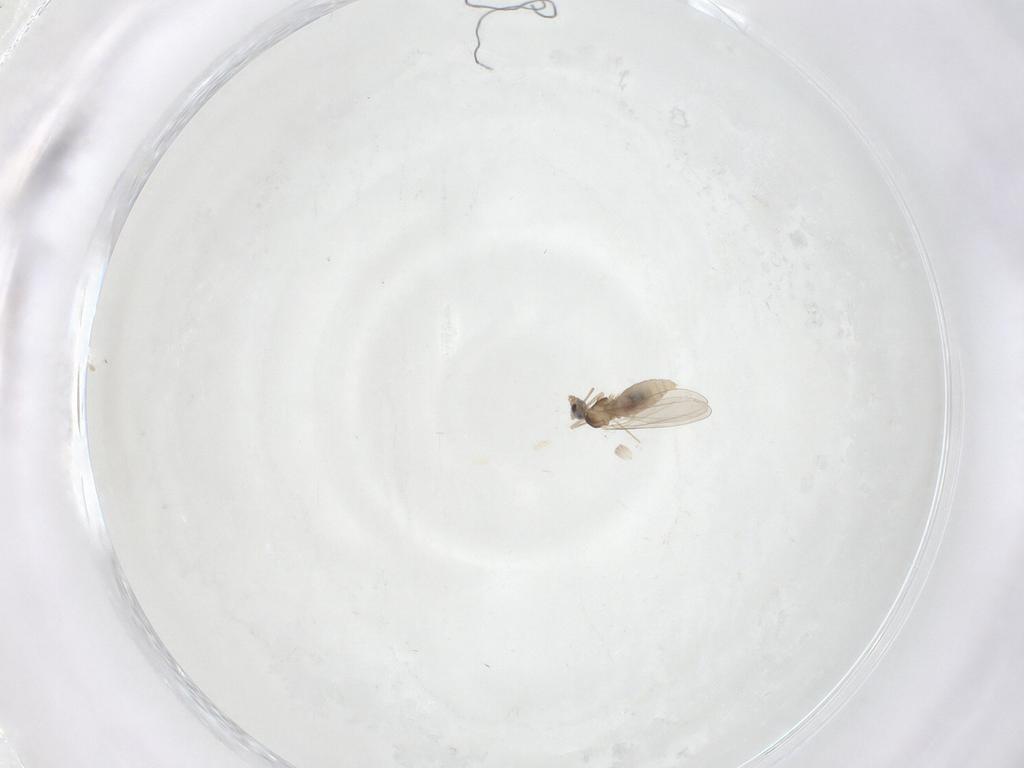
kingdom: Animalia
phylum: Arthropoda
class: Insecta
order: Diptera
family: Cecidomyiidae
